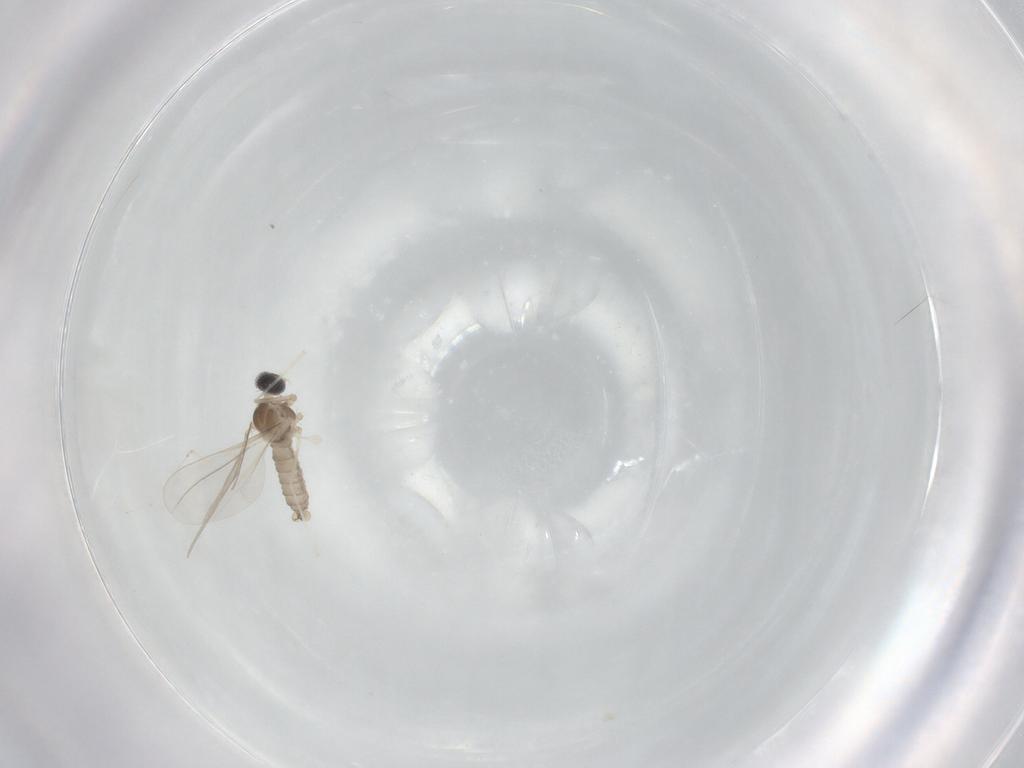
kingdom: Animalia
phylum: Arthropoda
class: Insecta
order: Diptera
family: Cecidomyiidae
